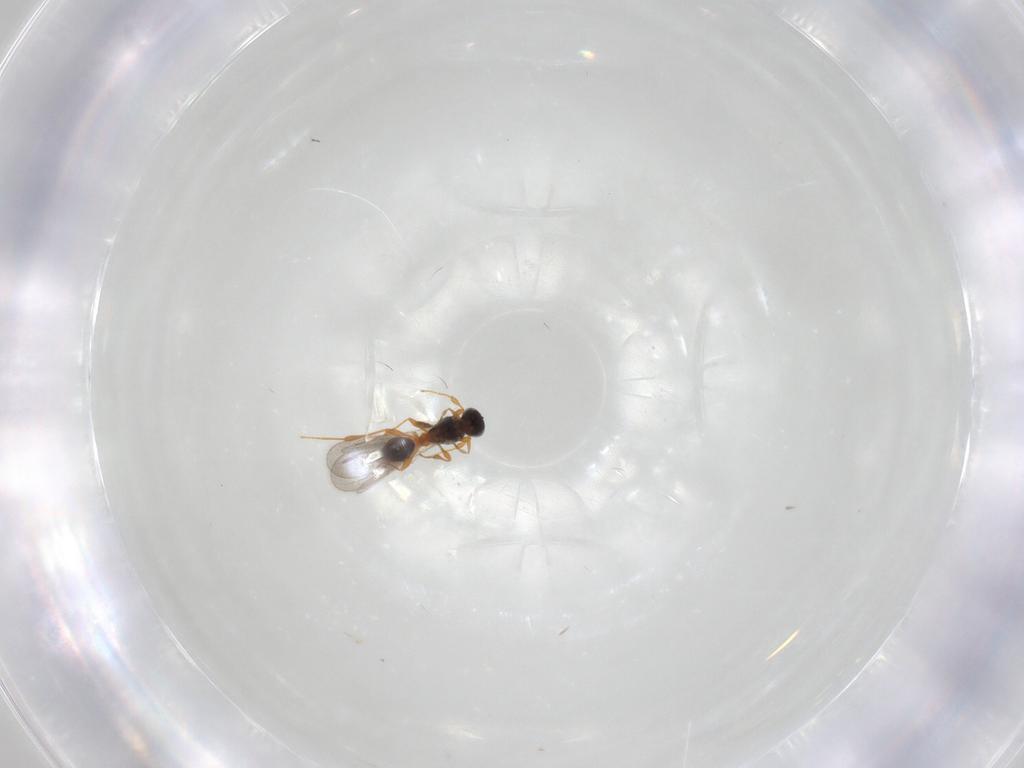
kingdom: Animalia
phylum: Arthropoda
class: Insecta
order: Hymenoptera
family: Platygastridae
